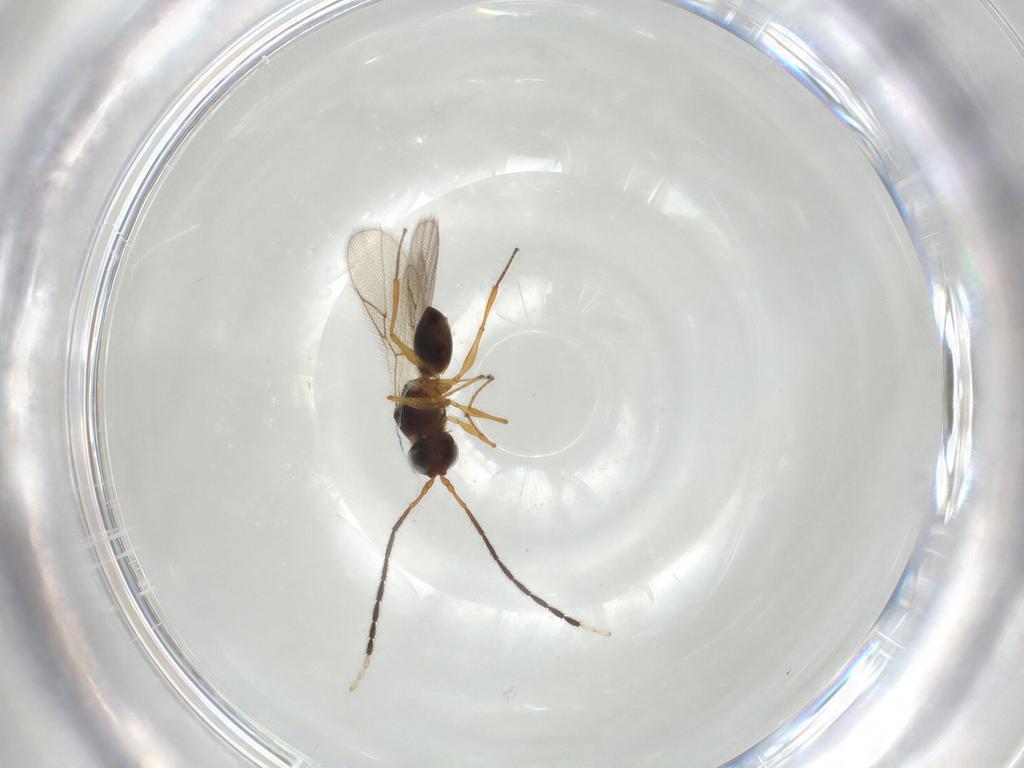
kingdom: Animalia
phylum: Arthropoda
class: Insecta
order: Hymenoptera
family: Figitidae
